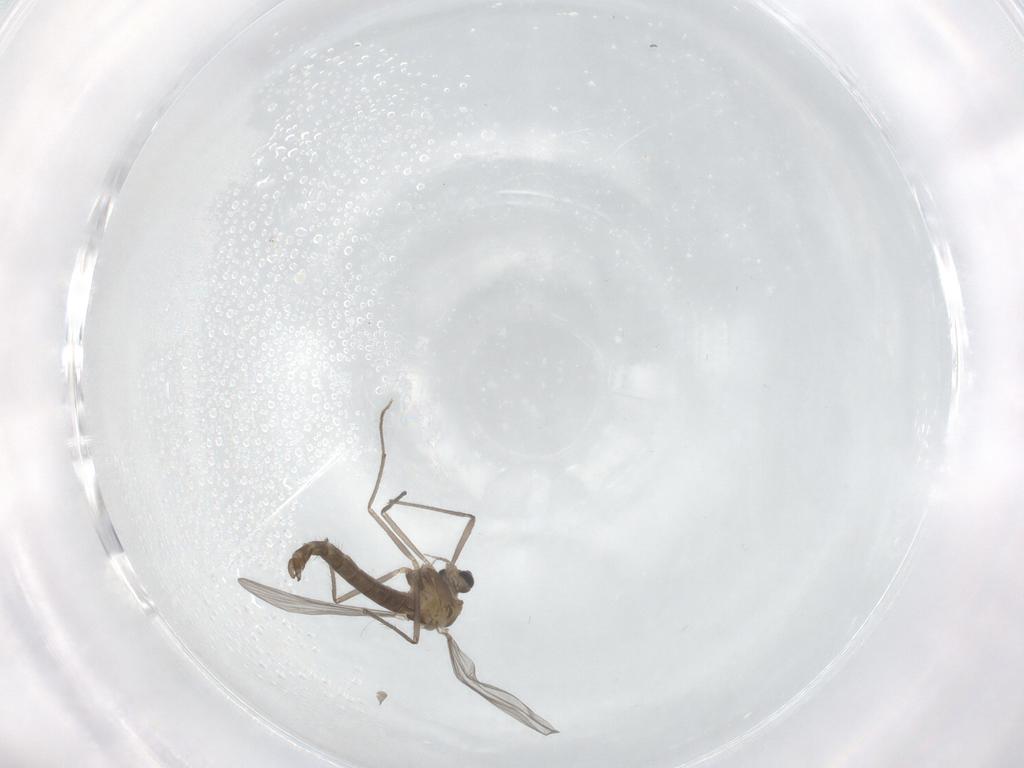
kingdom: Animalia
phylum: Arthropoda
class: Insecta
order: Diptera
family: Chironomidae
